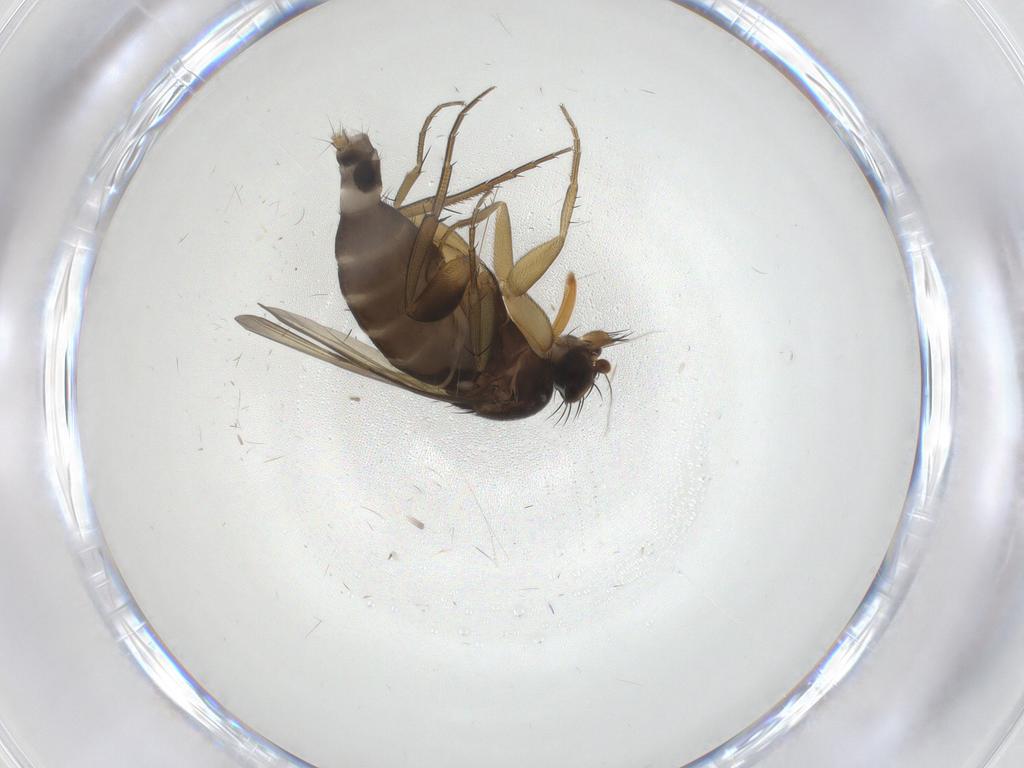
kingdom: Animalia
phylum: Arthropoda
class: Insecta
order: Diptera
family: Phoridae
